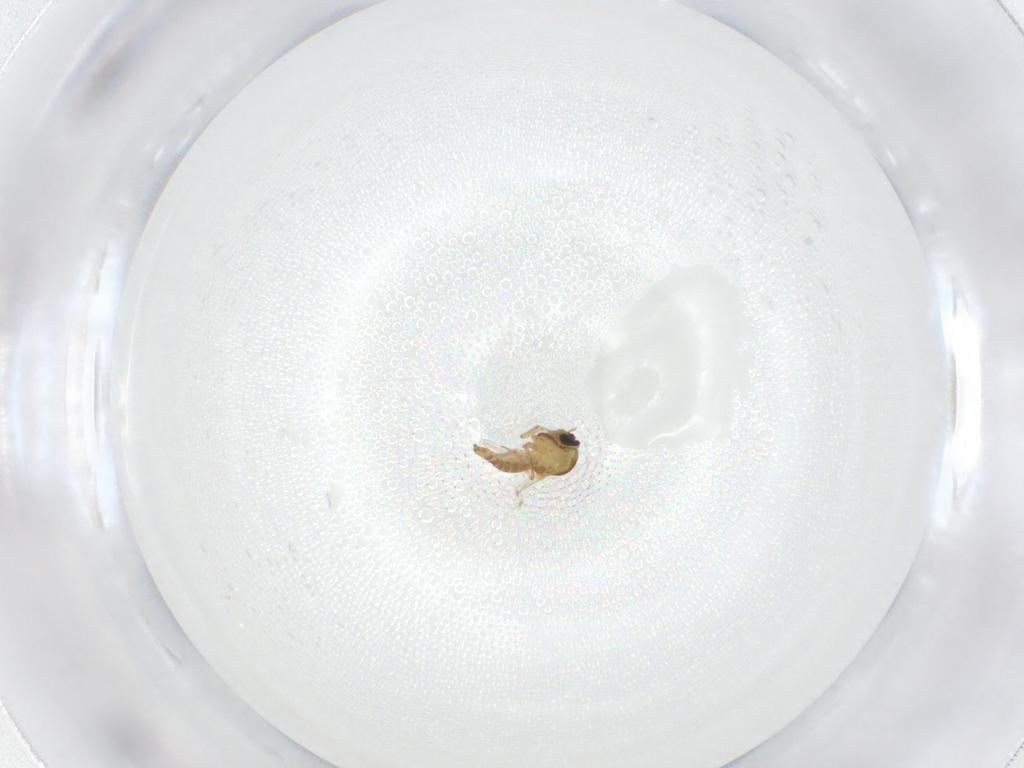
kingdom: Animalia
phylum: Arthropoda
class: Insecta
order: Diptera
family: Ceratopogonidae
